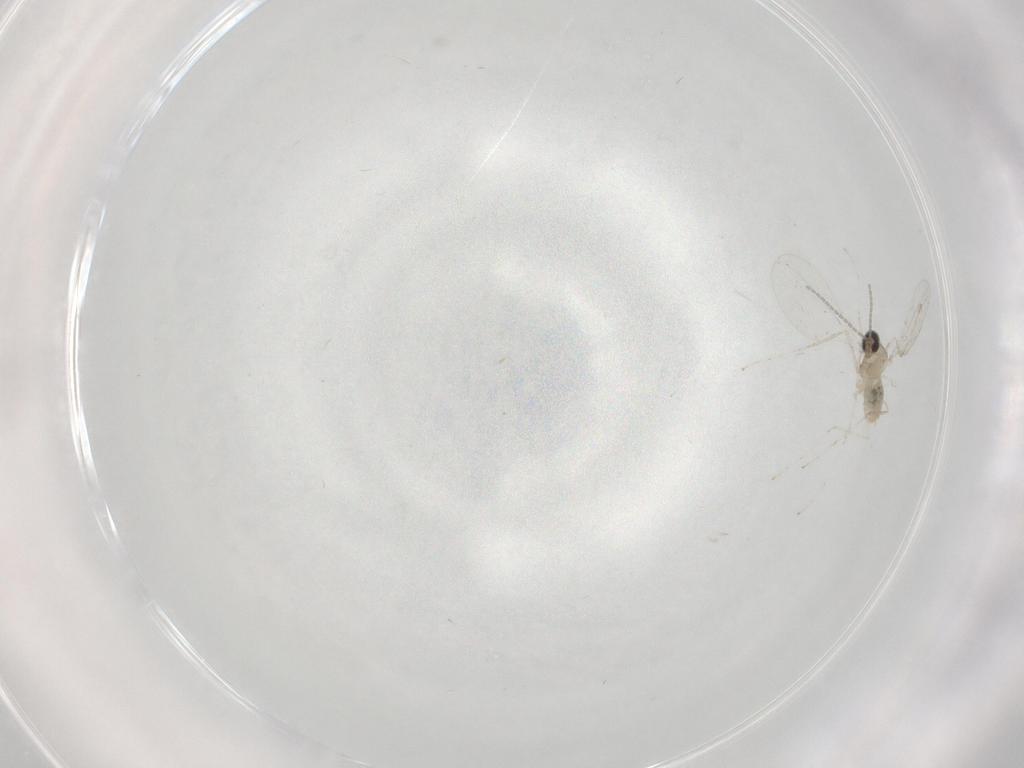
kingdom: Animalia
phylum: Arthropoda
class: Insecta
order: Diptera
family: Cecidomyiidae
